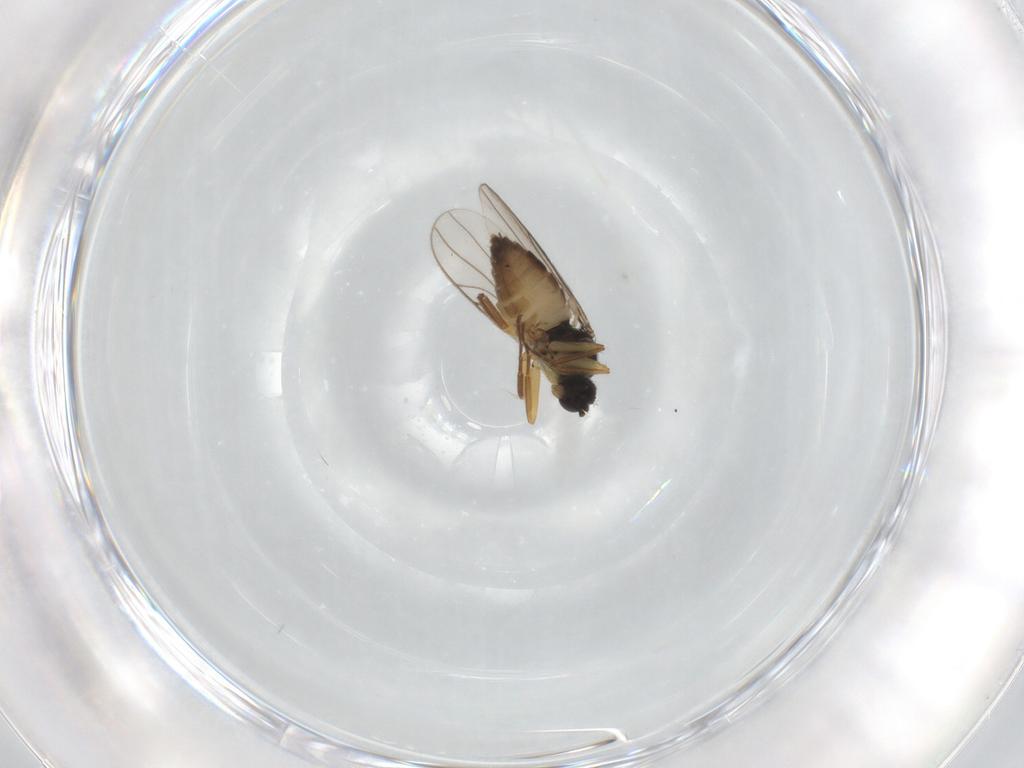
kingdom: Animalia
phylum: Arthropoda
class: Insecta
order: Diptera
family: Hybotidae
